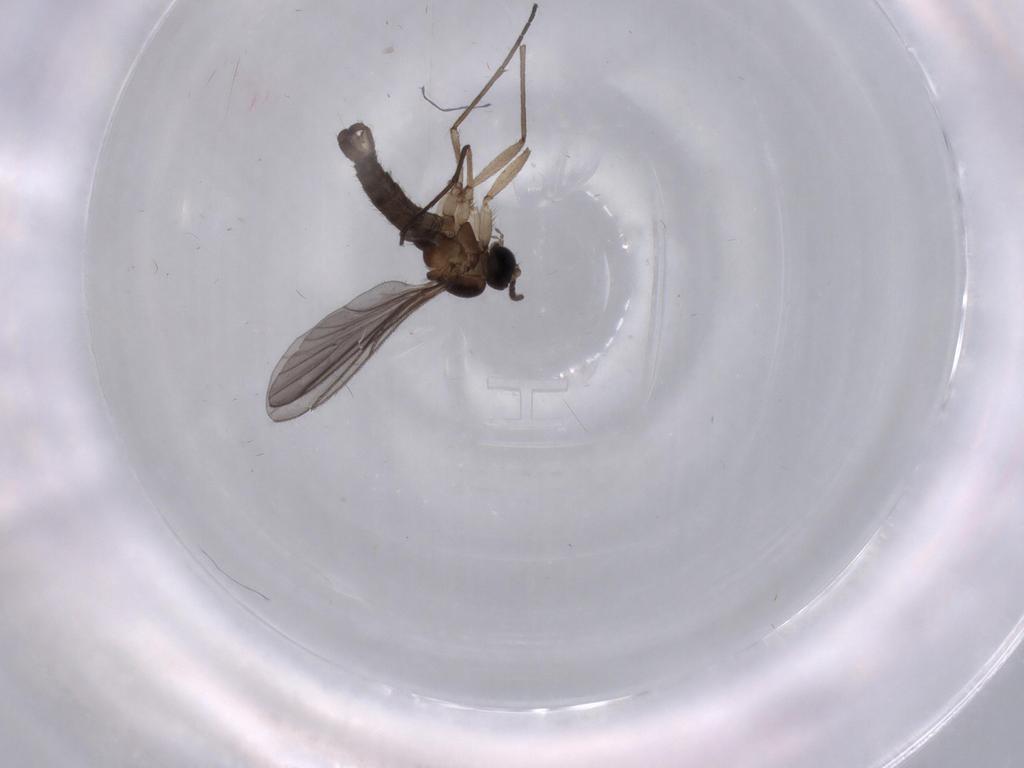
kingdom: Animalia
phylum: Arthropoda
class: Insecta
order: Diptera
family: Sciaridae
